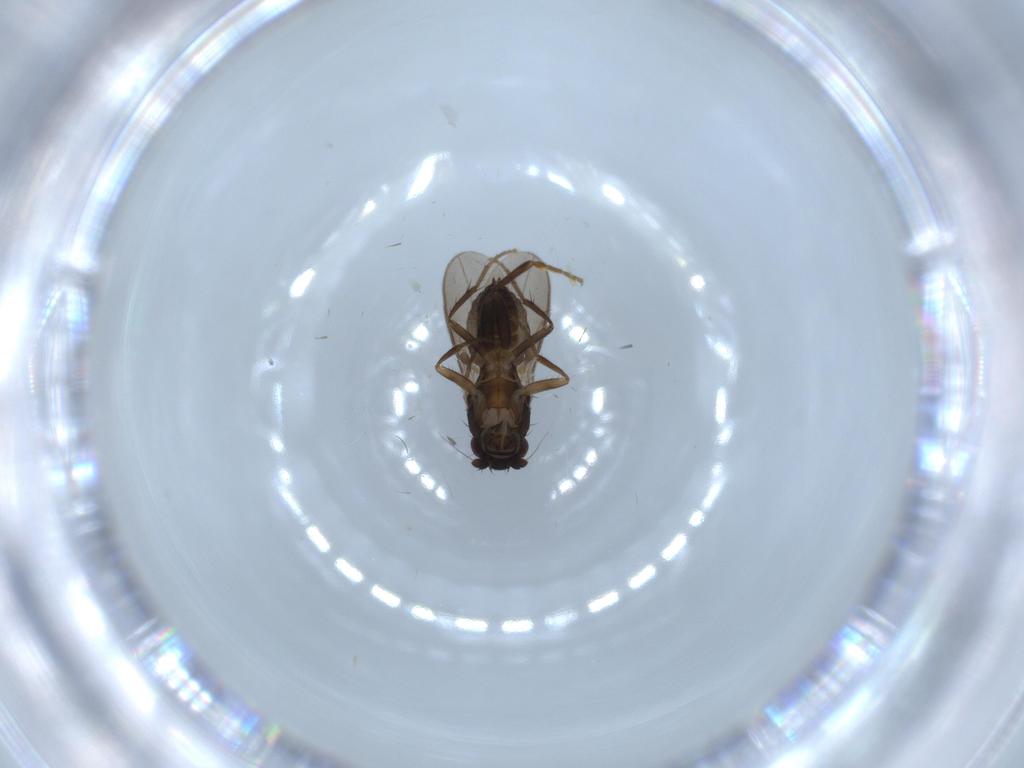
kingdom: Animalia
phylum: Arthropoda
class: Insecta
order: Diptera
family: Sphaeroceridae
